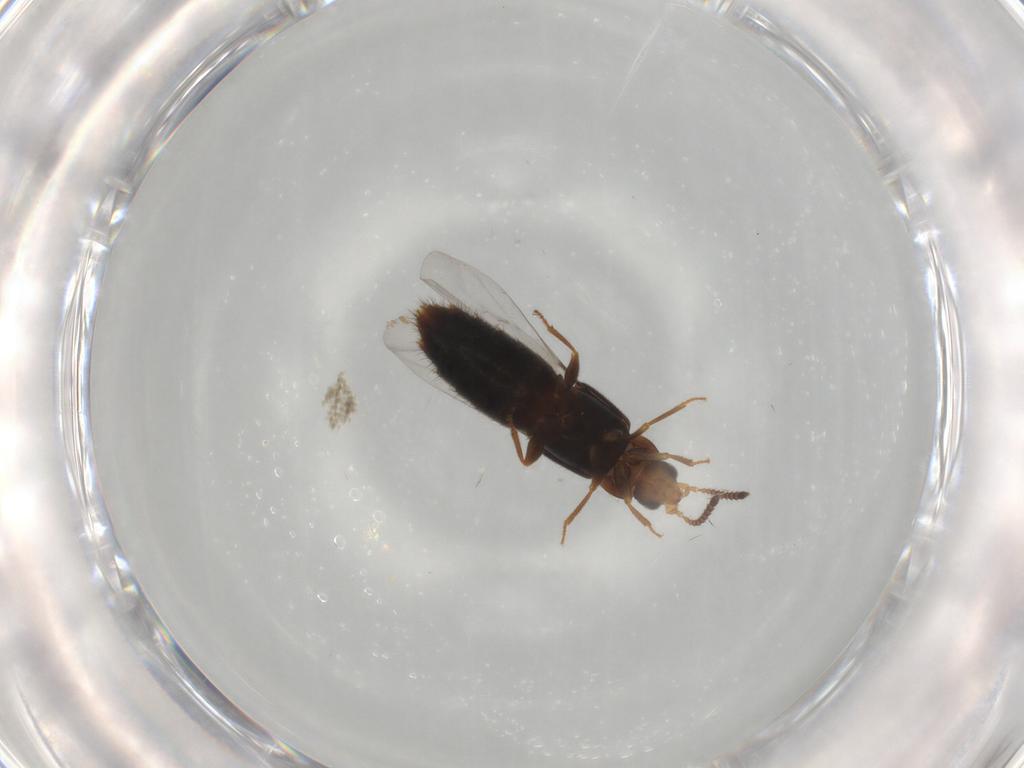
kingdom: Animalia
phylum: Arthropoda
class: Insecta
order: Coleoptera
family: Staphylinidae
